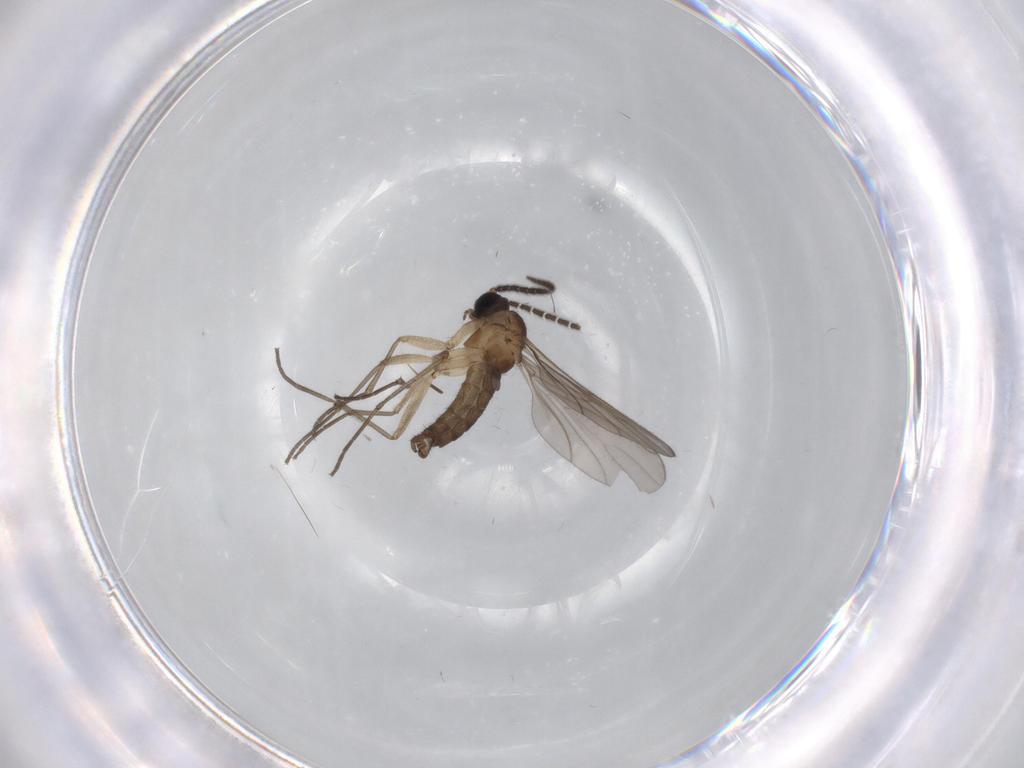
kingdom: Animalia
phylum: Arthropoda
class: Insecta
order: Diptera
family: Sciaridae
